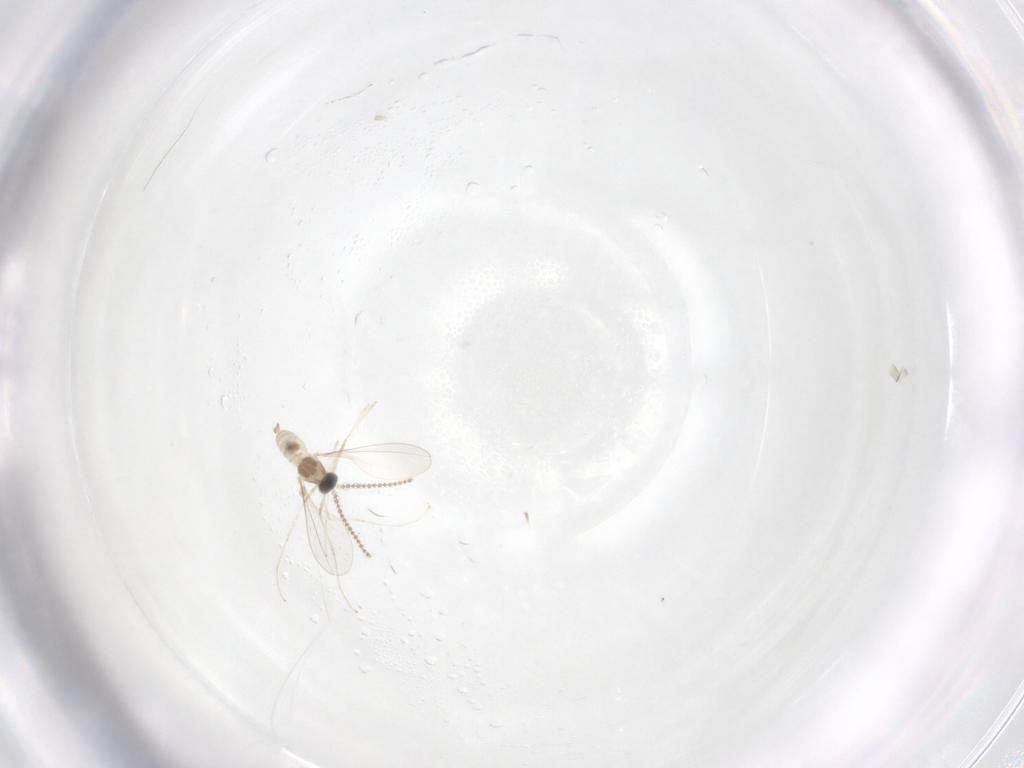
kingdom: Animalia
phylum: Arthropoda
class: Insecta
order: Diptera
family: Cecidomyiidae
